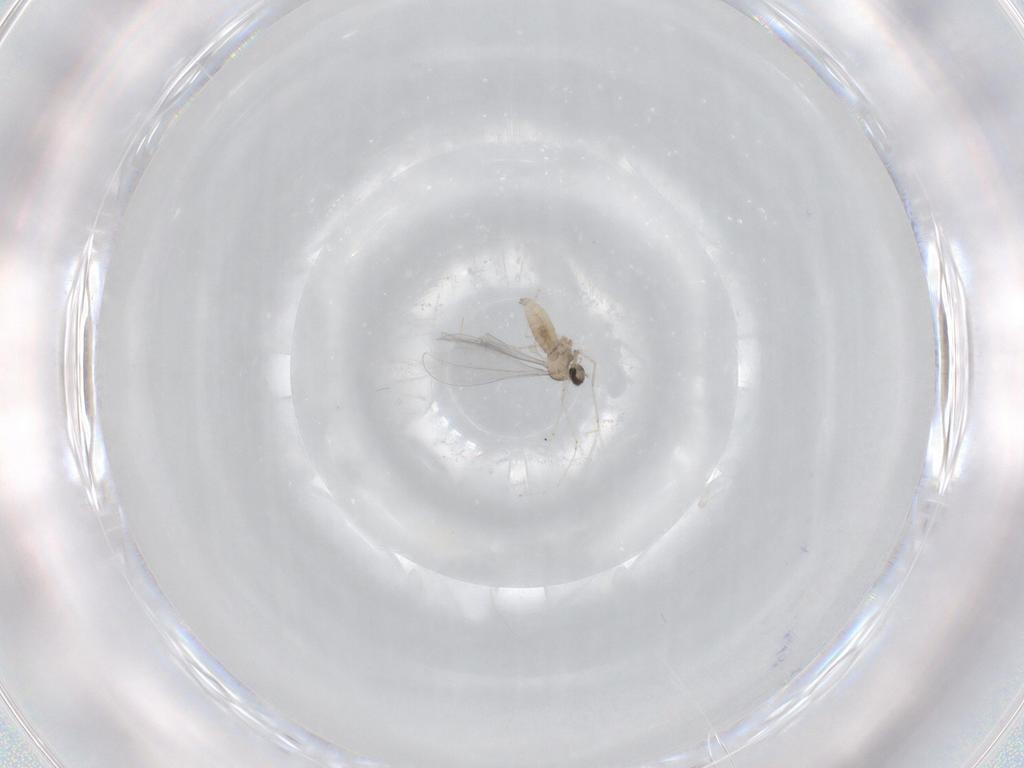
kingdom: Animalia
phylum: Arthropoda
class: Insecta
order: Diptera
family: Cecidomyiidae
